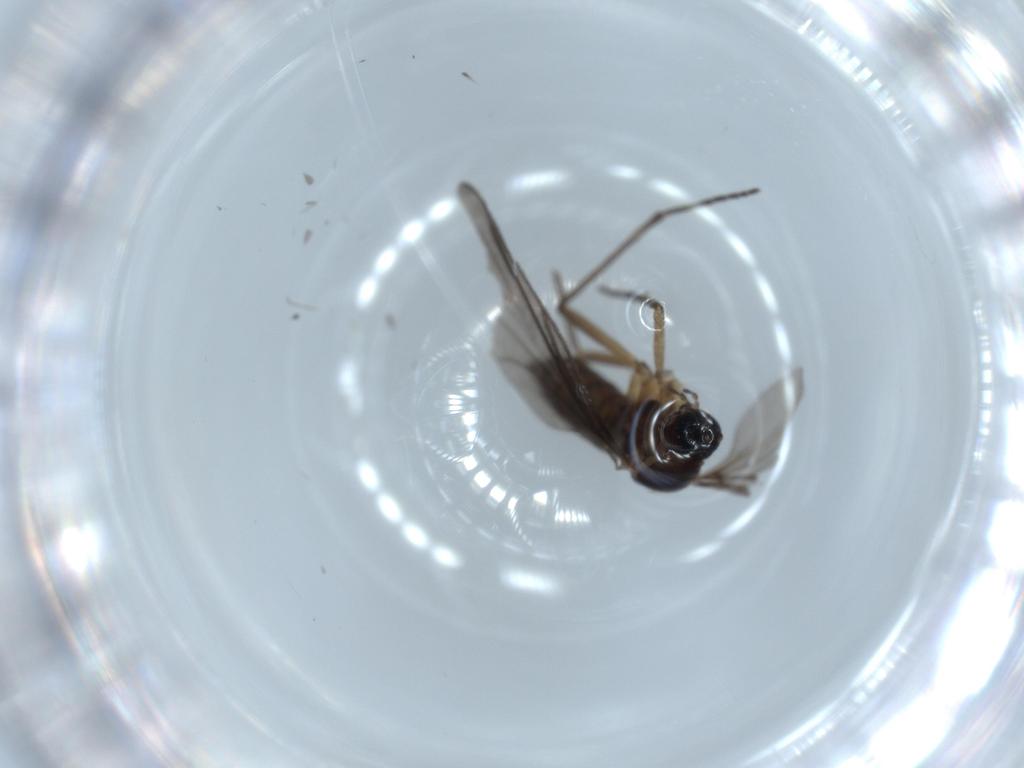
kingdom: Animalia
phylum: Arthropoda
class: Insecta
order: Diptera
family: Sciaridae
